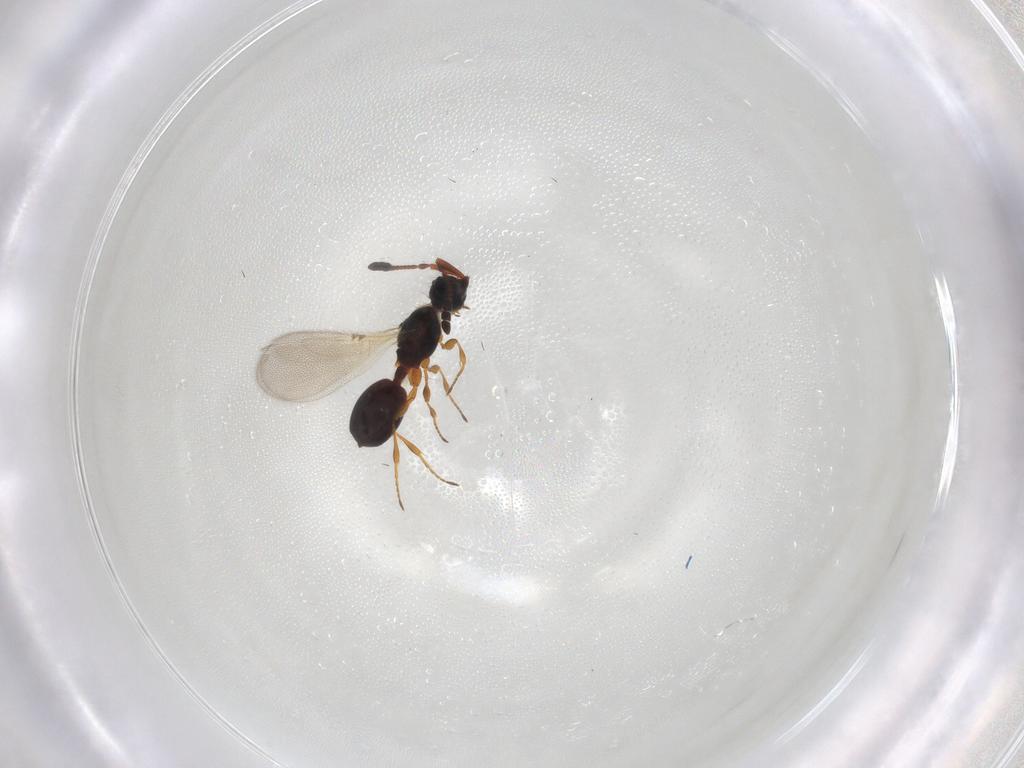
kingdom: Animalia
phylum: Arthropoda
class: Insecta
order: Hymenoptera
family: Diapriidae
